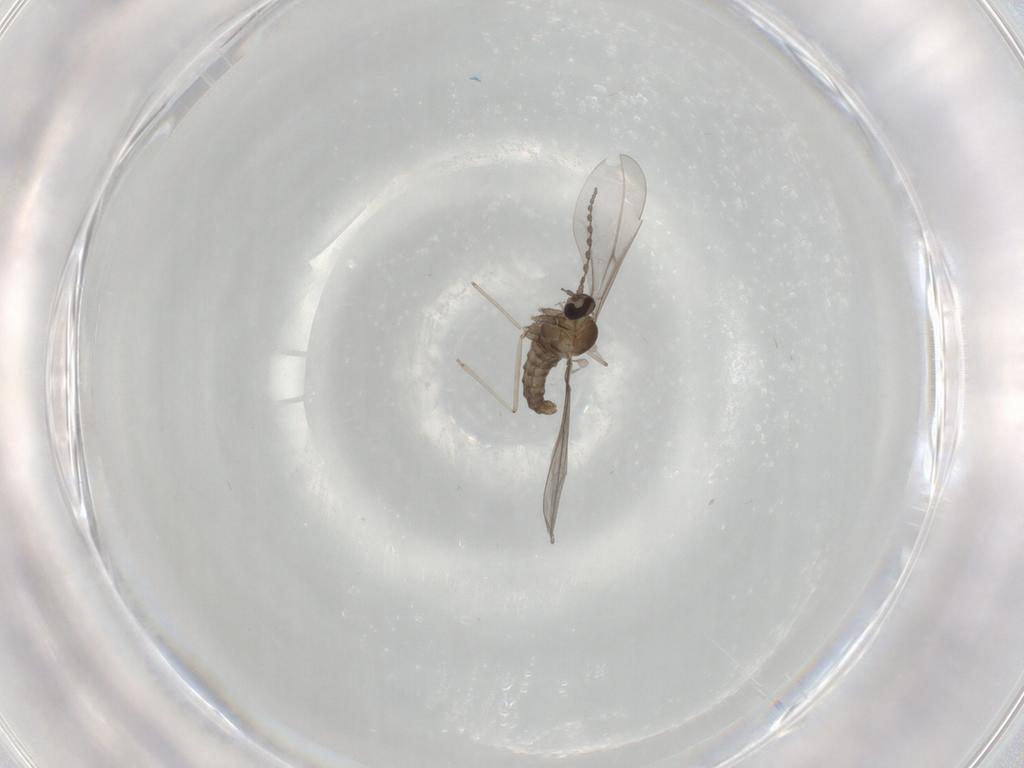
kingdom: Animalia
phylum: Arthropoda
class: Insecta
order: Diptera
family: Cecidomyiidae
